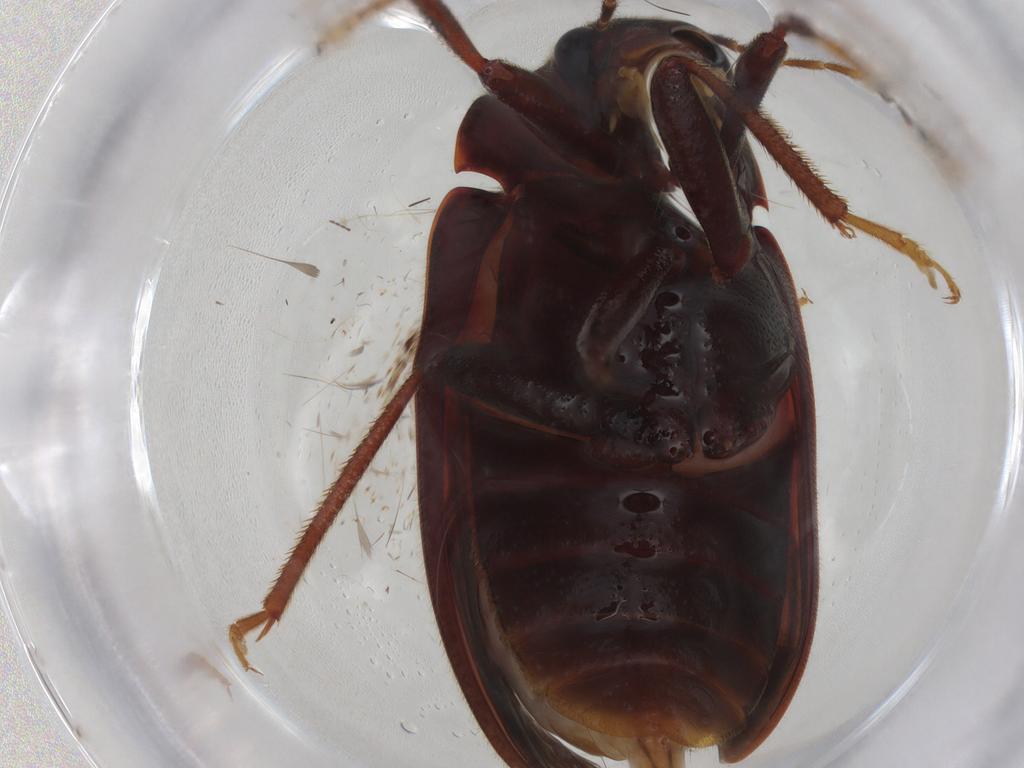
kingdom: Animalia
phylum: Arthropoda
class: Insecta
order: Coleoptera
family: Ptilodactylidae
